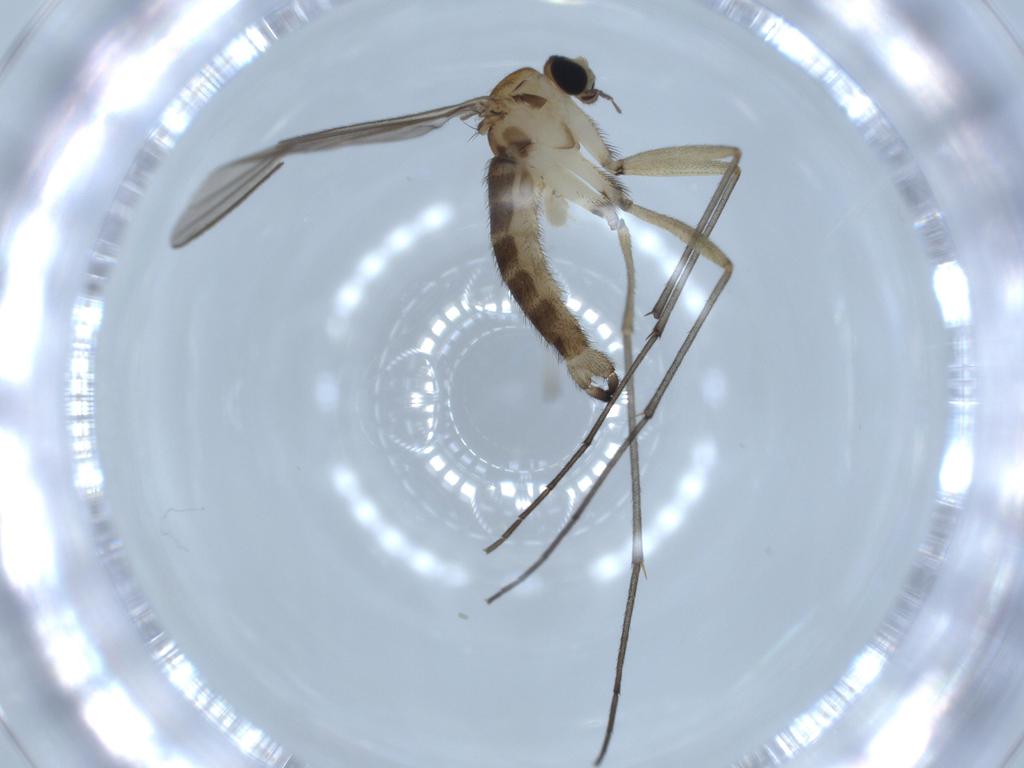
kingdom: Animalia
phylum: Arthropoda
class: Insecta
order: Diptera
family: Sciaridae
